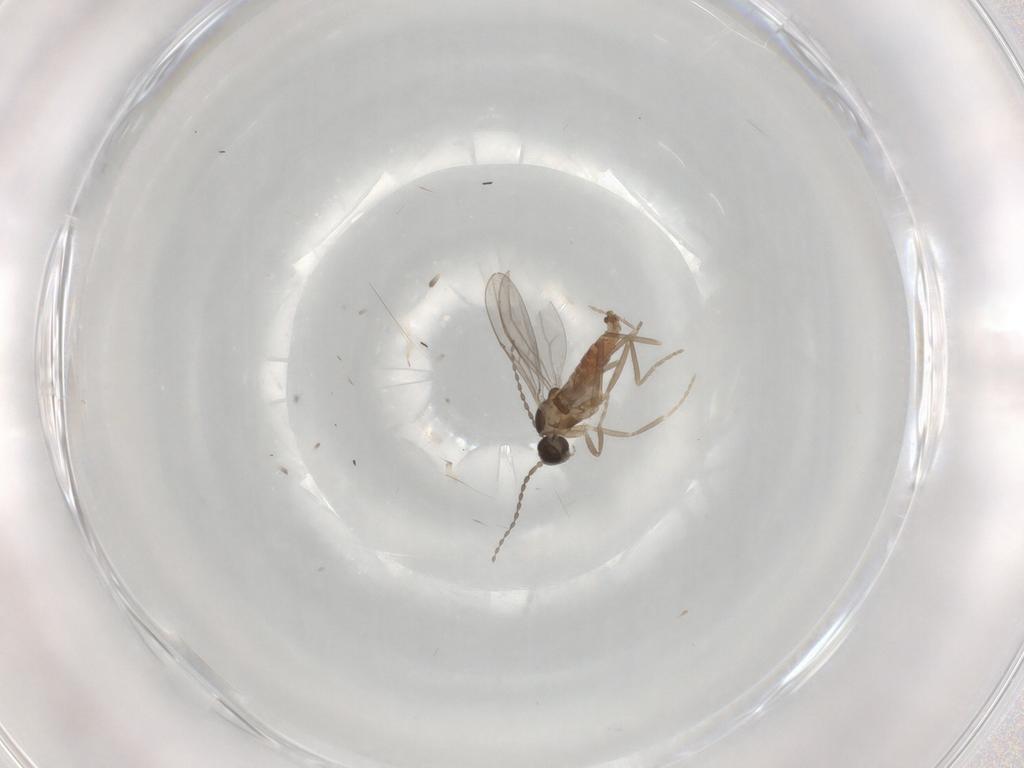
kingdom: Animalia
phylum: Arthropoda
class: Insecta
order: Diptera
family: Cecidomyiidae
